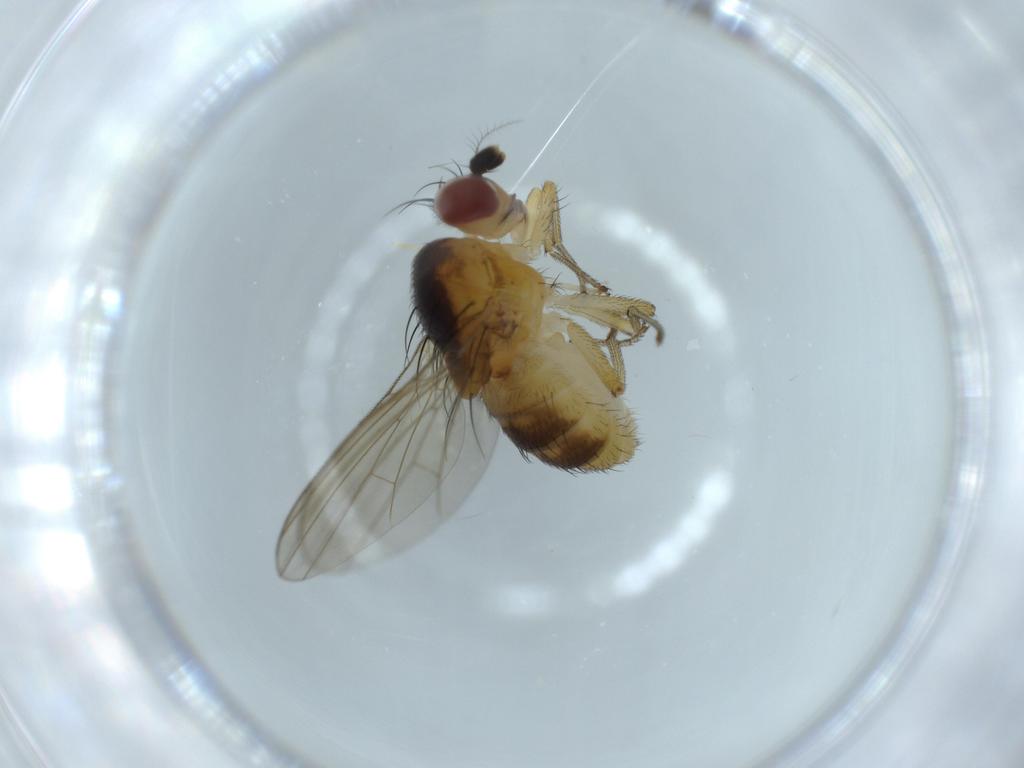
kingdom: Animalia
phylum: Arthropoda
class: Insecta
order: Diptera
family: Lauxaniidae
